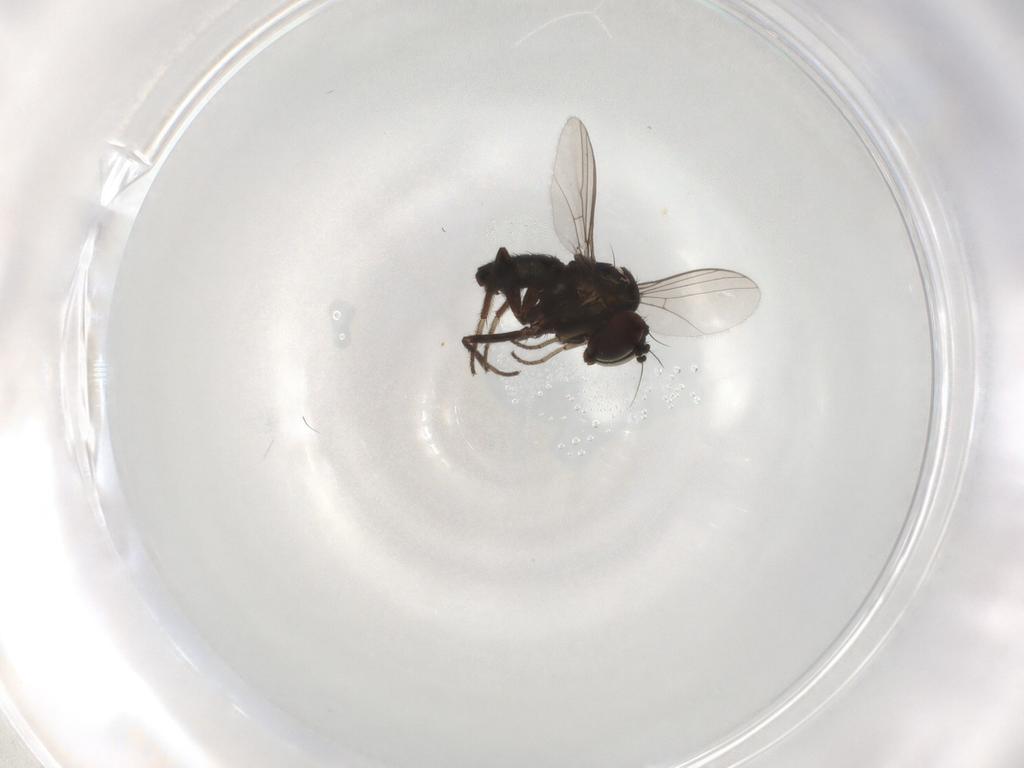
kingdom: Animalia
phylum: Arthropoda
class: Insecta
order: Diptera
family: Dolichopodidae
